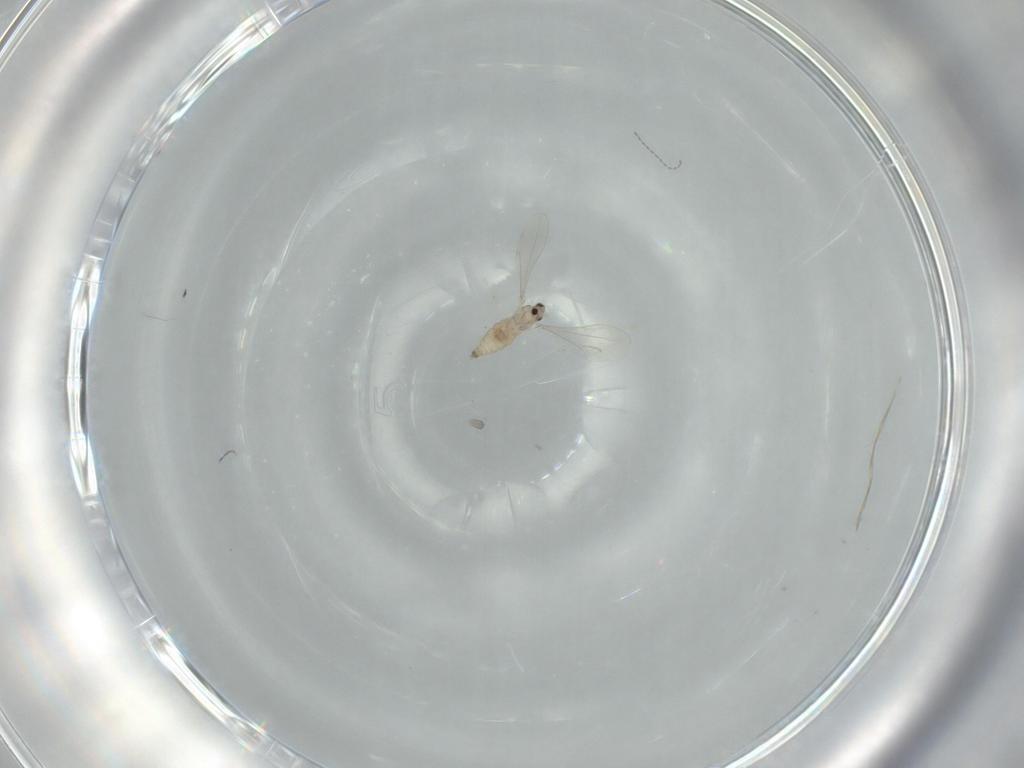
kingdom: Animalia
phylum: Arthropoda
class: Insecta
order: Diptera
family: Cecidomyiidae
